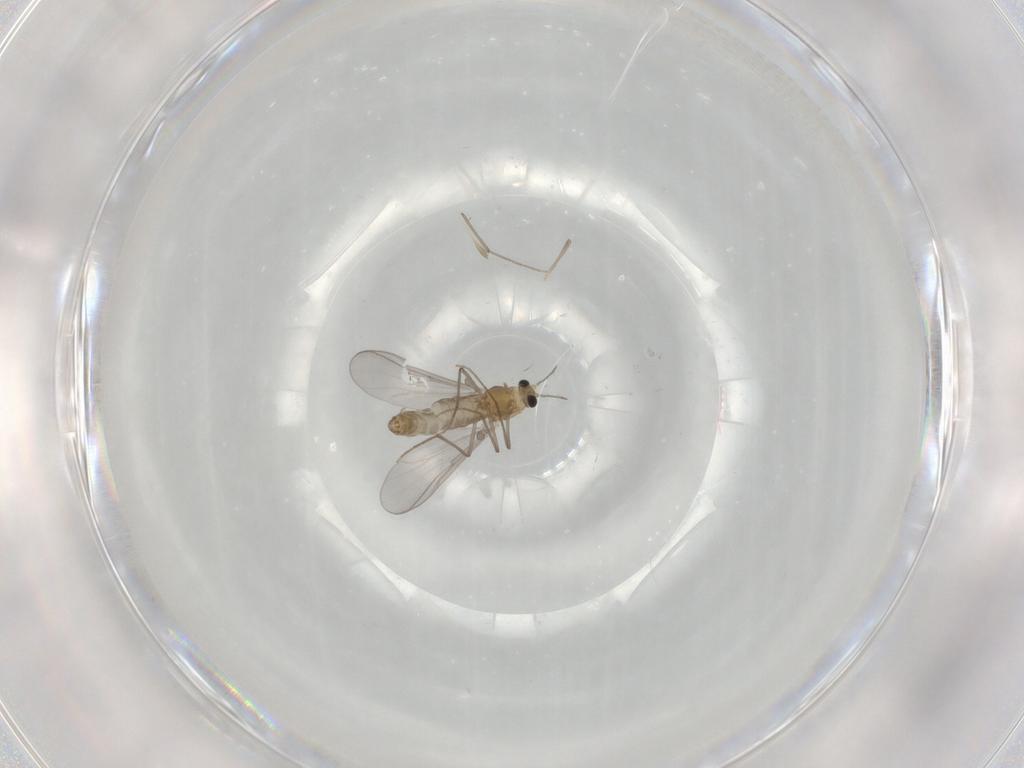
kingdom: Animalia
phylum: Arthropoda
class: Insecta
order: Diptera
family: Chironomidae
